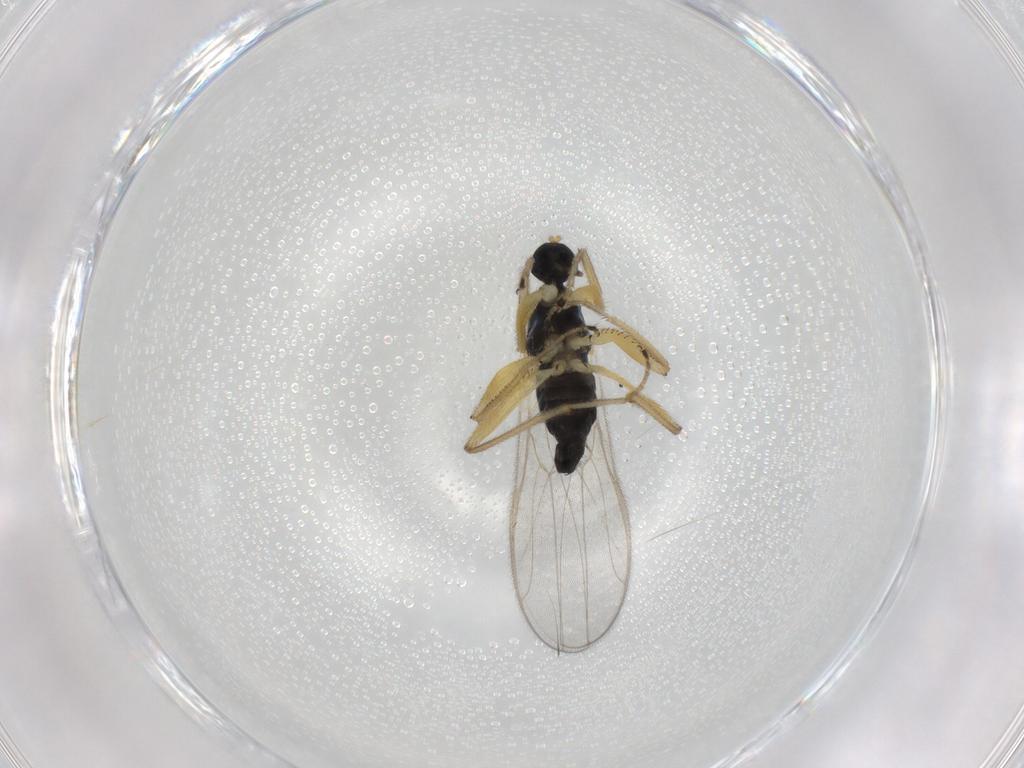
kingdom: Animalia
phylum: Arthropoda
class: Insecta
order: Diptera
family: Hybotidae
